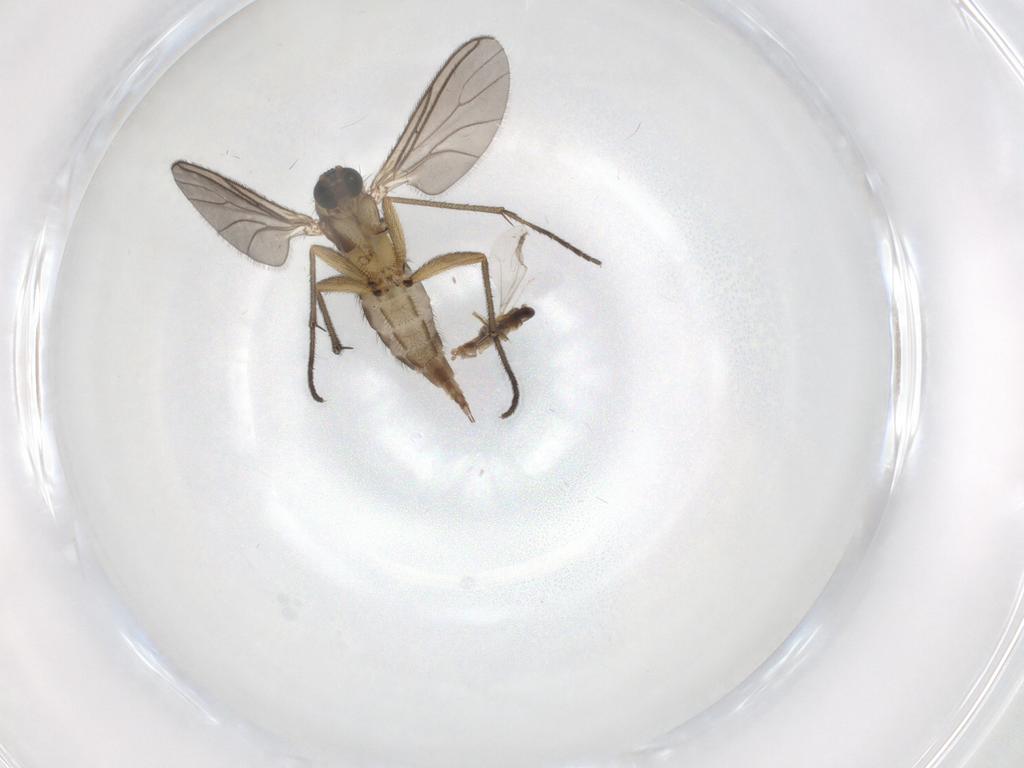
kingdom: Animalia
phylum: Arthropoda
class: Insecta
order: Diptera
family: Sciaridae
